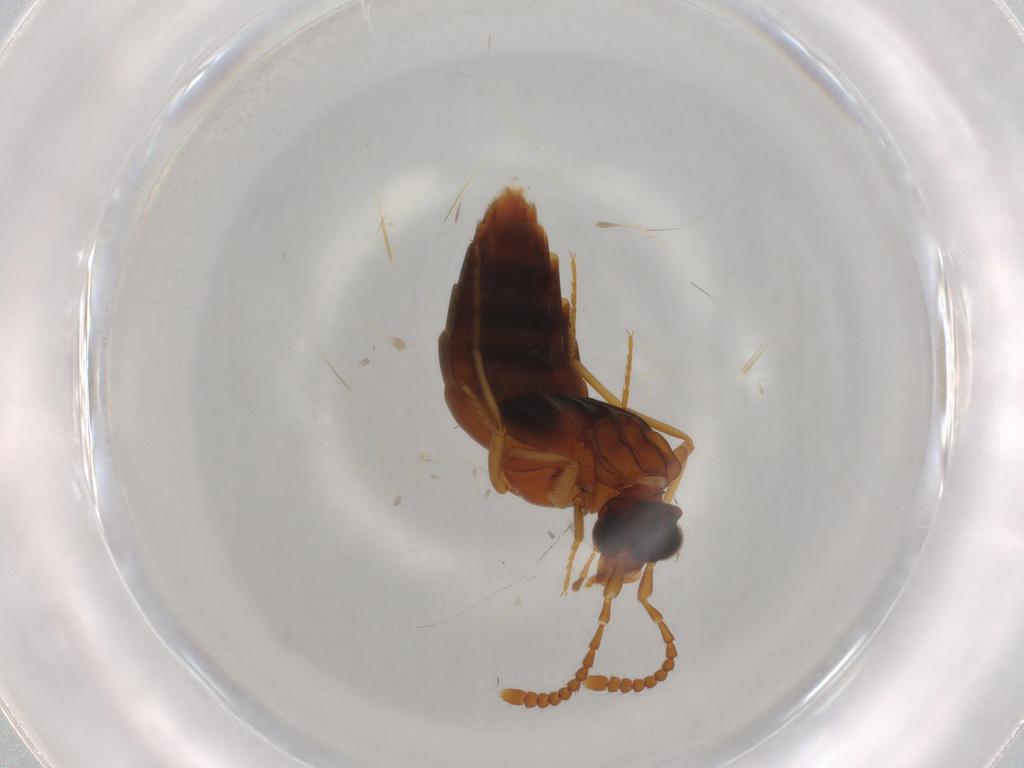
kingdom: Animalia
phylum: Arthropoda
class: Insecta
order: Coleoptera
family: Staphylinidae
